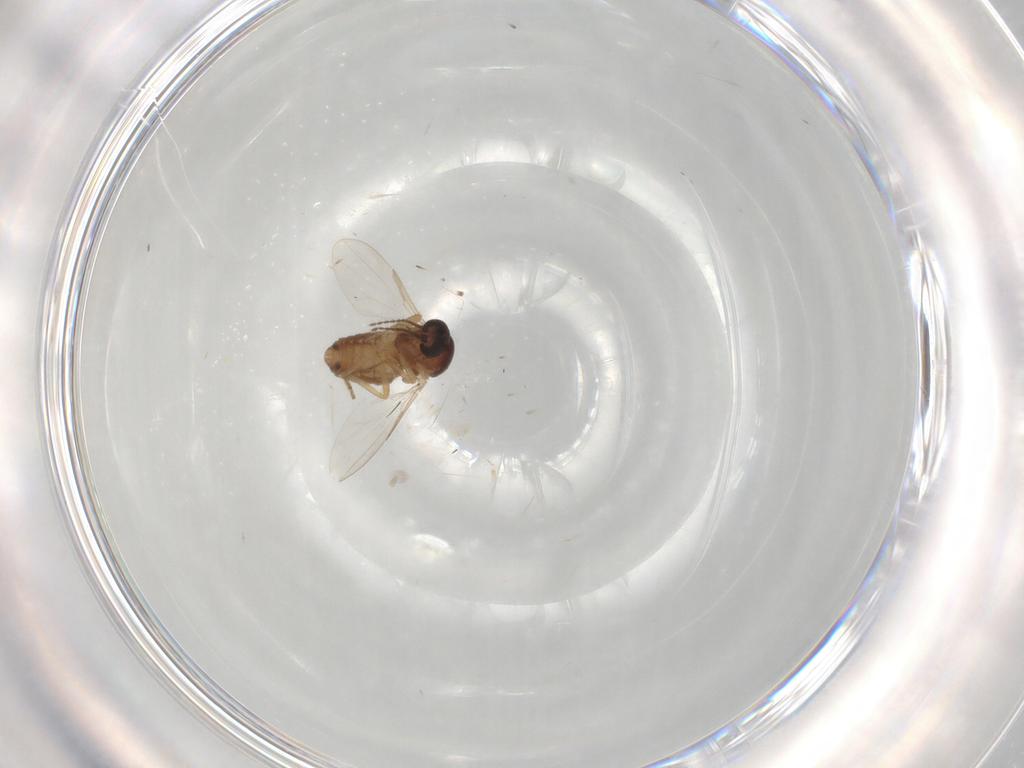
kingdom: Animalia
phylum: Arthropoda
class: Insecta
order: Diptera
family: Ceratopogonidae
